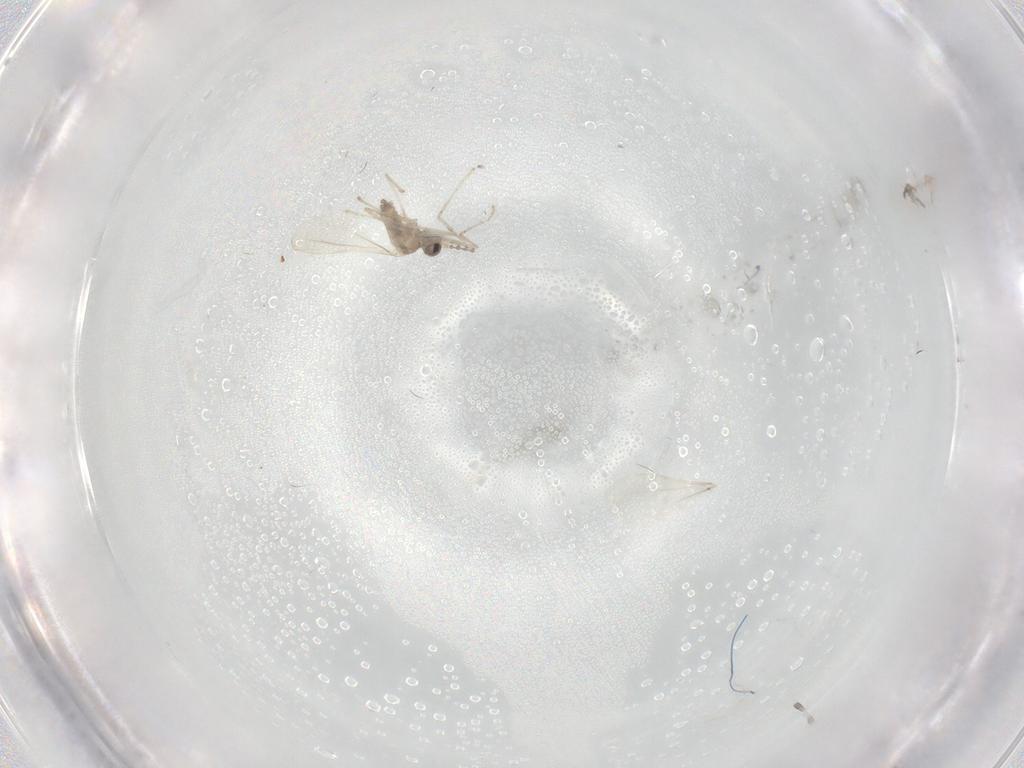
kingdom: Animalia
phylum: Arthropoda
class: Insecta
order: Diptera
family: Cecidomyiidae
